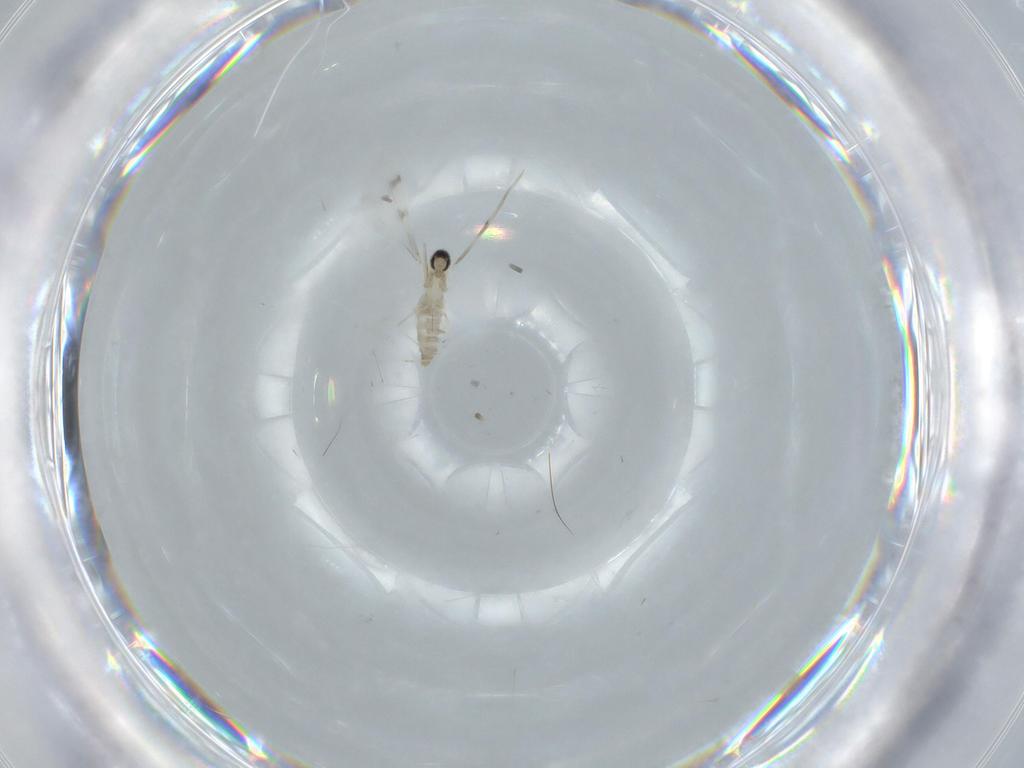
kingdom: Animalia
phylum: Arthropoda
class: Insecta
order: Diptera
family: Cecidomyiidae
